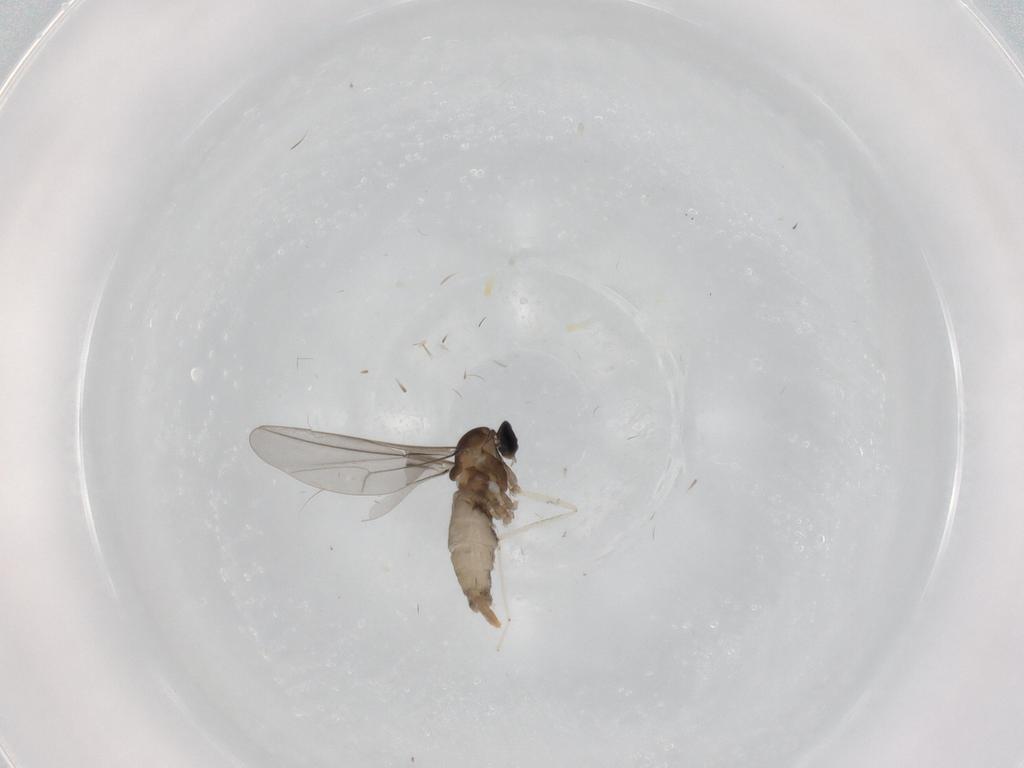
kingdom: Animalia
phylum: Arthropoda
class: Insecta
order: Diptera
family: Cecidomyiidae
